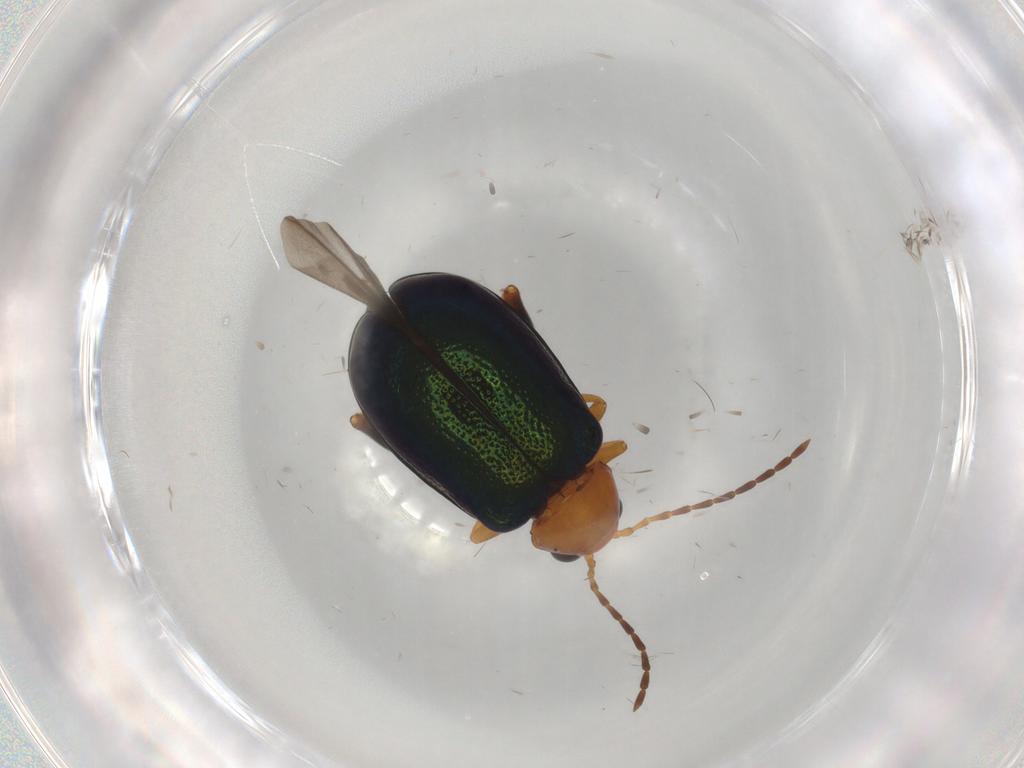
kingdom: Animalia
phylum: Arthropoda
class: Insecta
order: Coleoptera
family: Chrysomelidae
